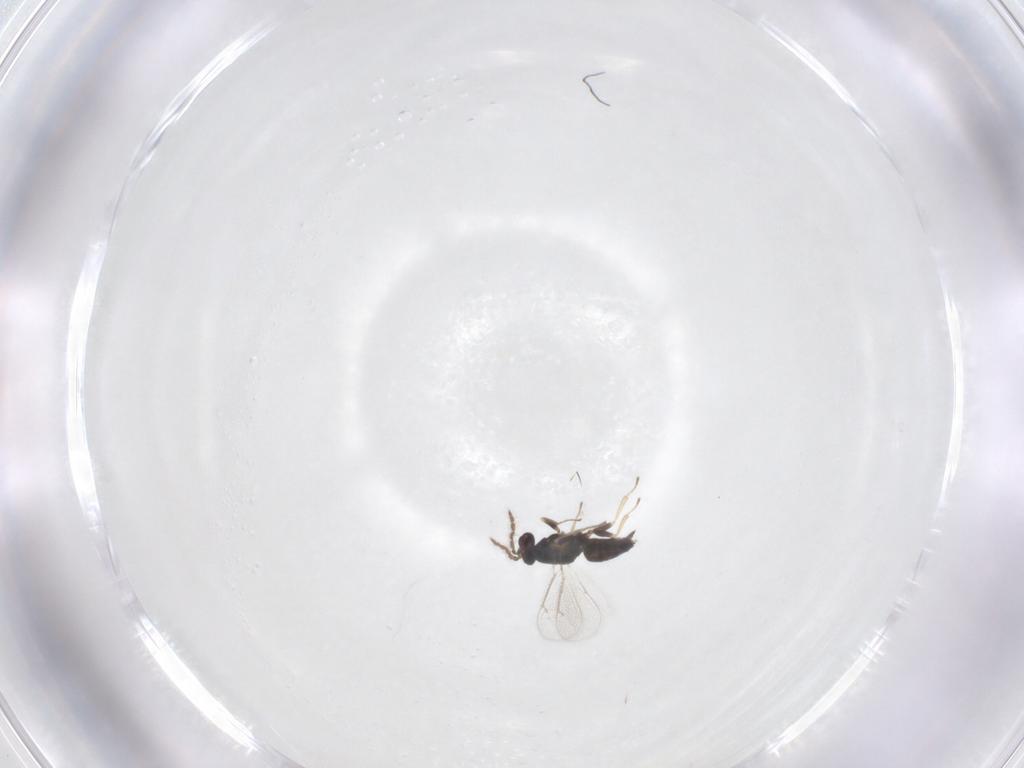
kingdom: Animalia
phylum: Arthropoda
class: Insecta
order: Hymenoptera
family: Eulophidae
